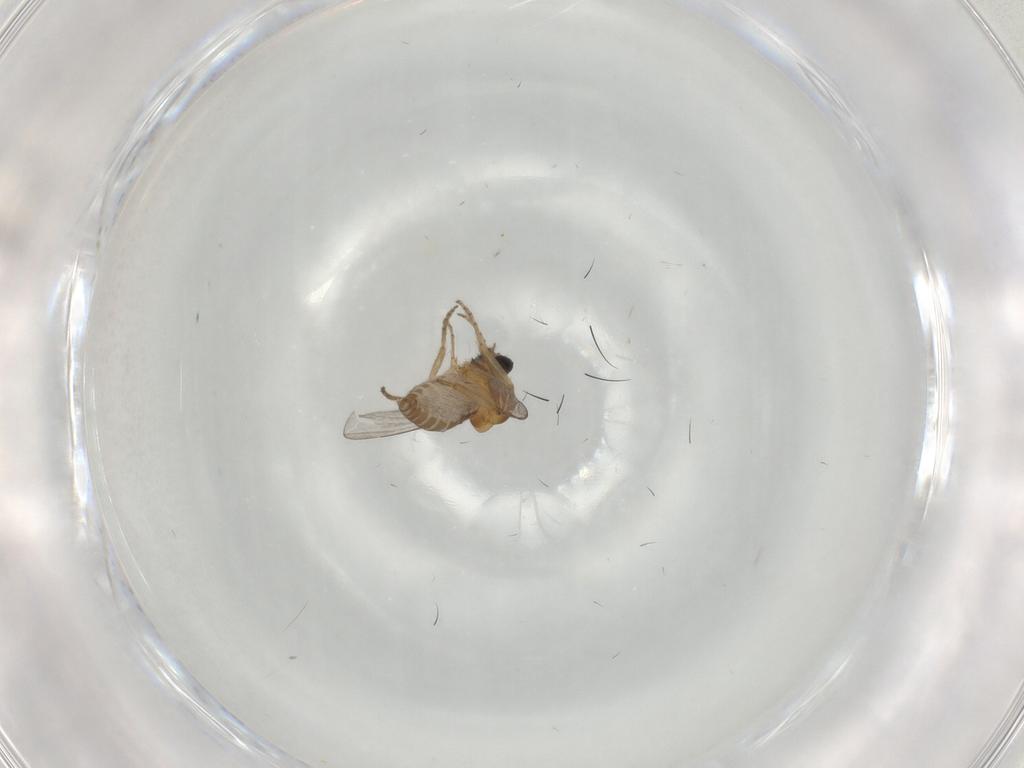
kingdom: Animalia
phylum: Arthropoda
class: Insecta
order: Diptera
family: Ceratopogonidae
